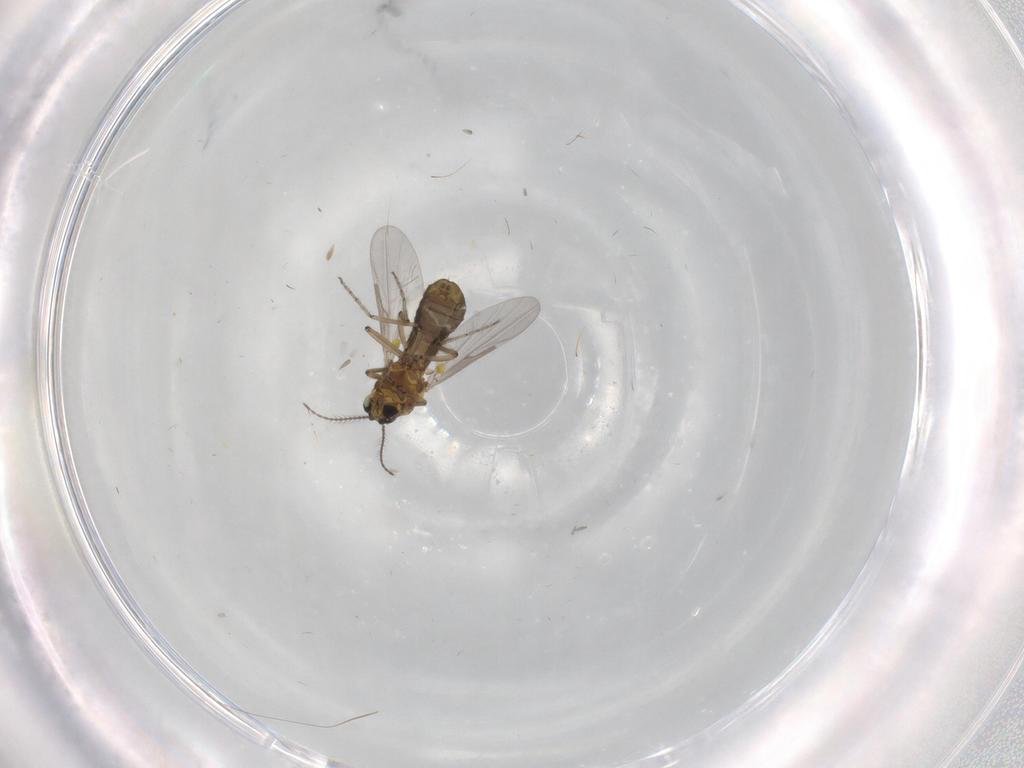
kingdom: Animalia
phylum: Arthropoda
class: Insecta
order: Diptera
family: Ceratopogonidae
